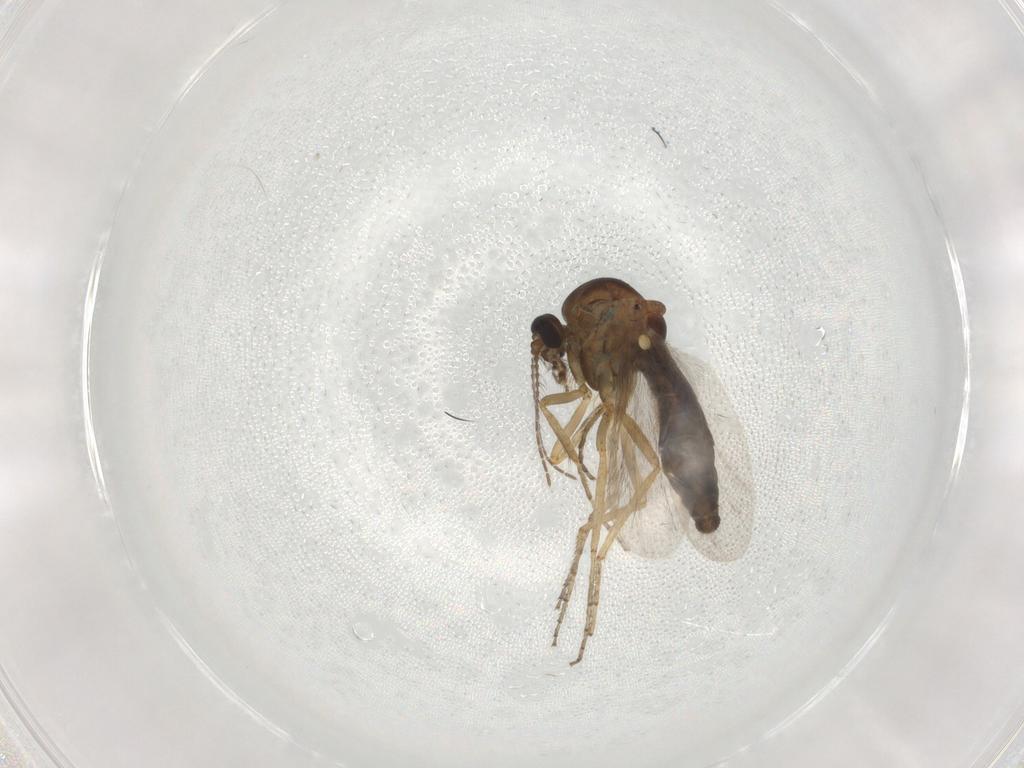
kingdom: Animalia
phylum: Arthropoda
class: Insecta
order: Diptera
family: Phoridae
